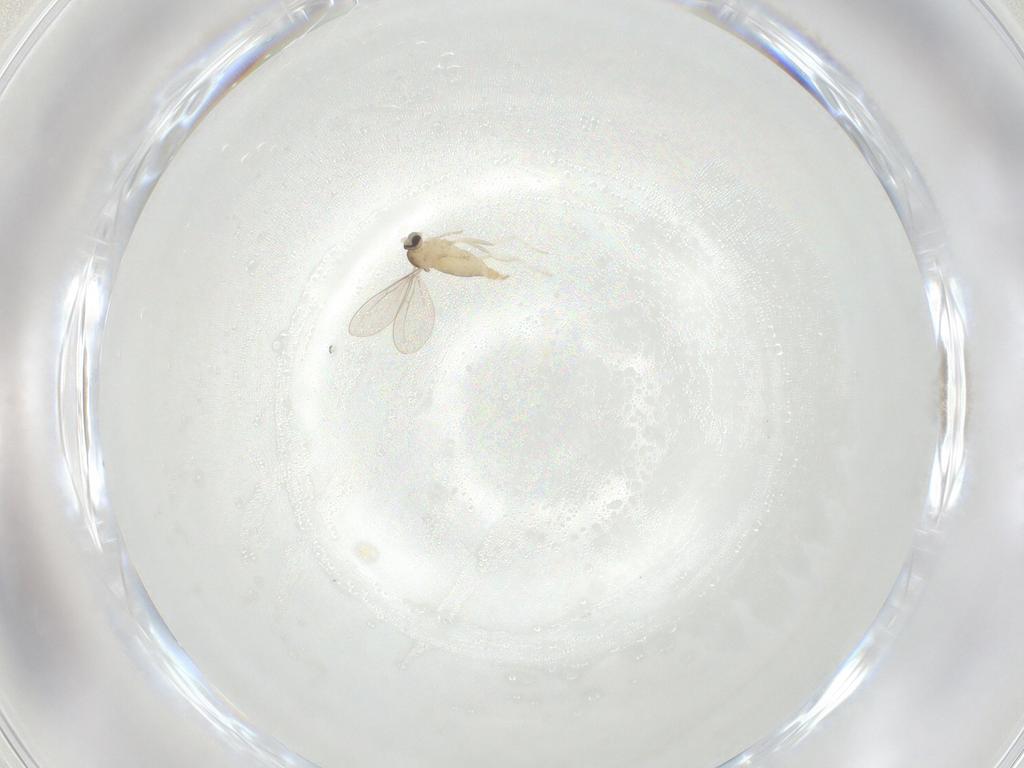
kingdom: Animalia
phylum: Arthropoda
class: Insecta
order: Diptera
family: Cecidomyiidae
